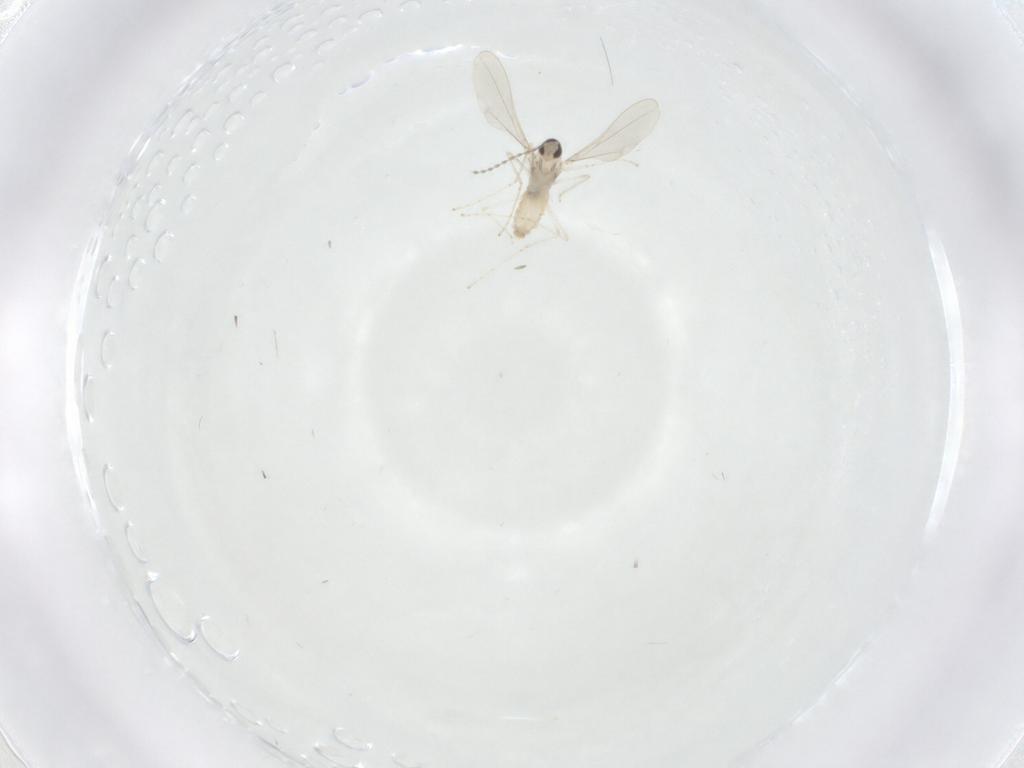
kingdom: Animalia
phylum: Arthropoda
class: Insecta
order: Diptera
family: Cecidomyiidae
